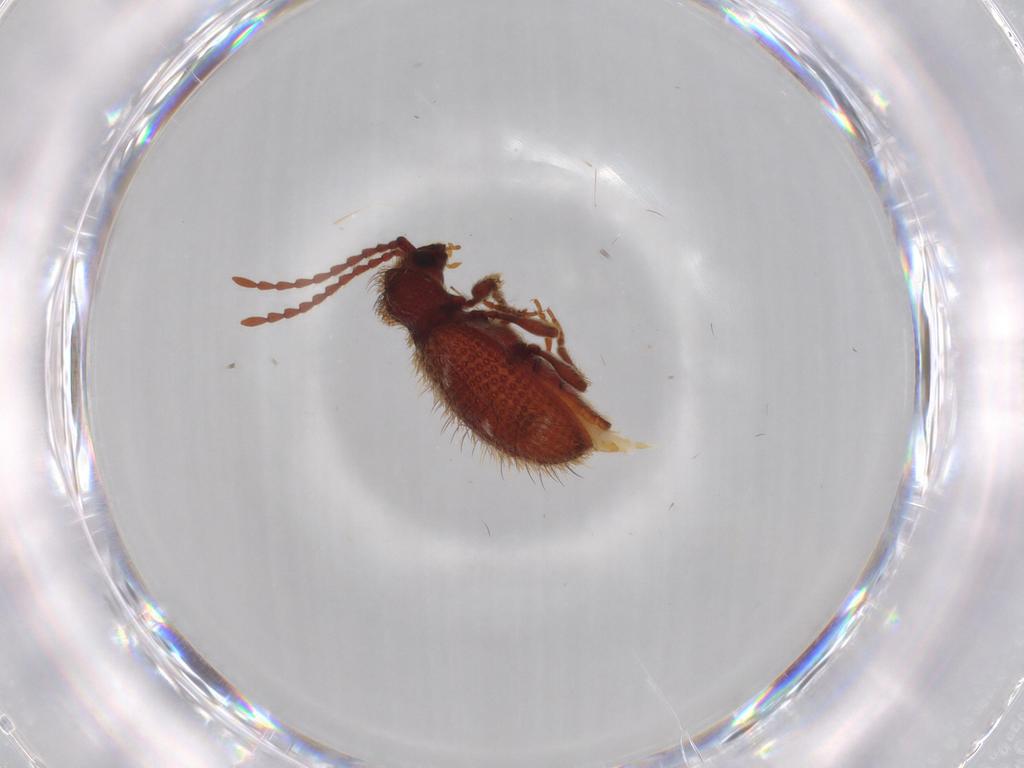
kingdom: Animalia
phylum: Arthropoda
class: Insecta
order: Coleoptera
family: Ptinidae
